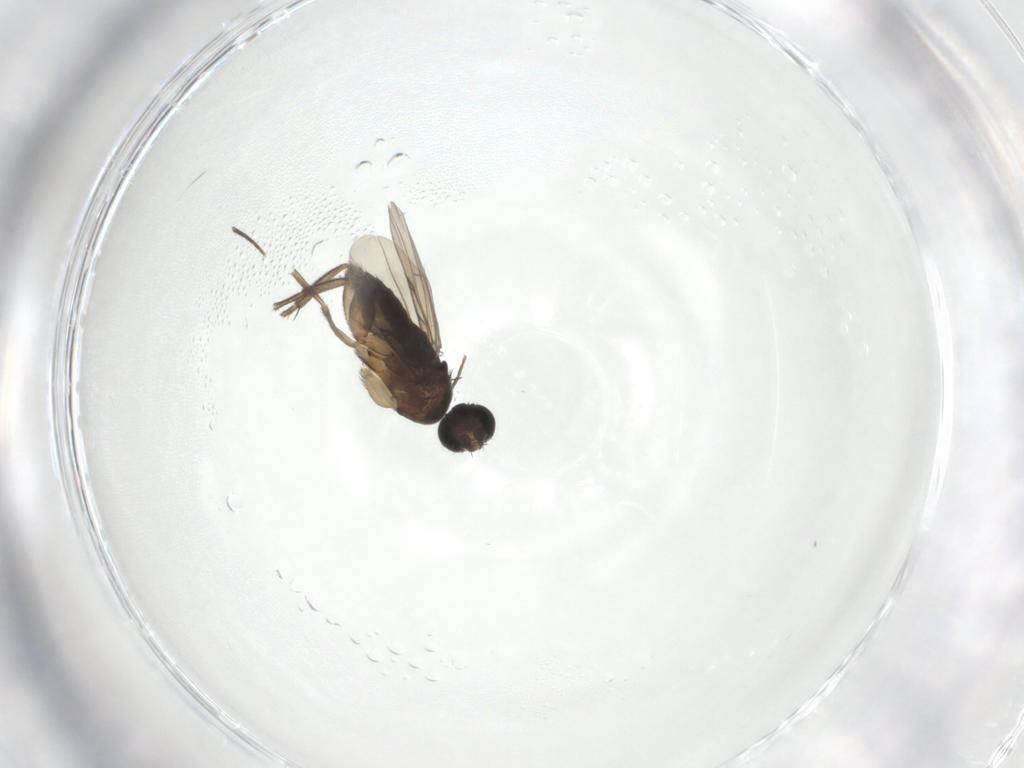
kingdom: Animalia
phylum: Arthropoda
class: Insecta
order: Diptera
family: Phoridae
